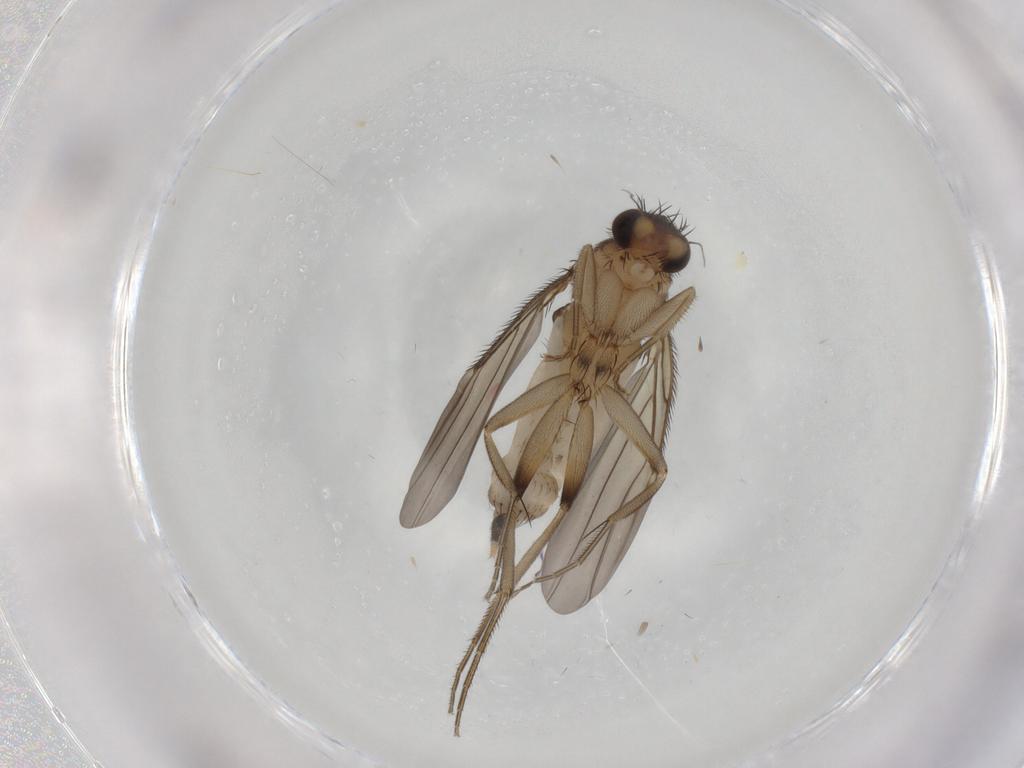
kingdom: Animalia
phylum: Arthropoda
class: Insecta
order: Diptera
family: Phoridae
